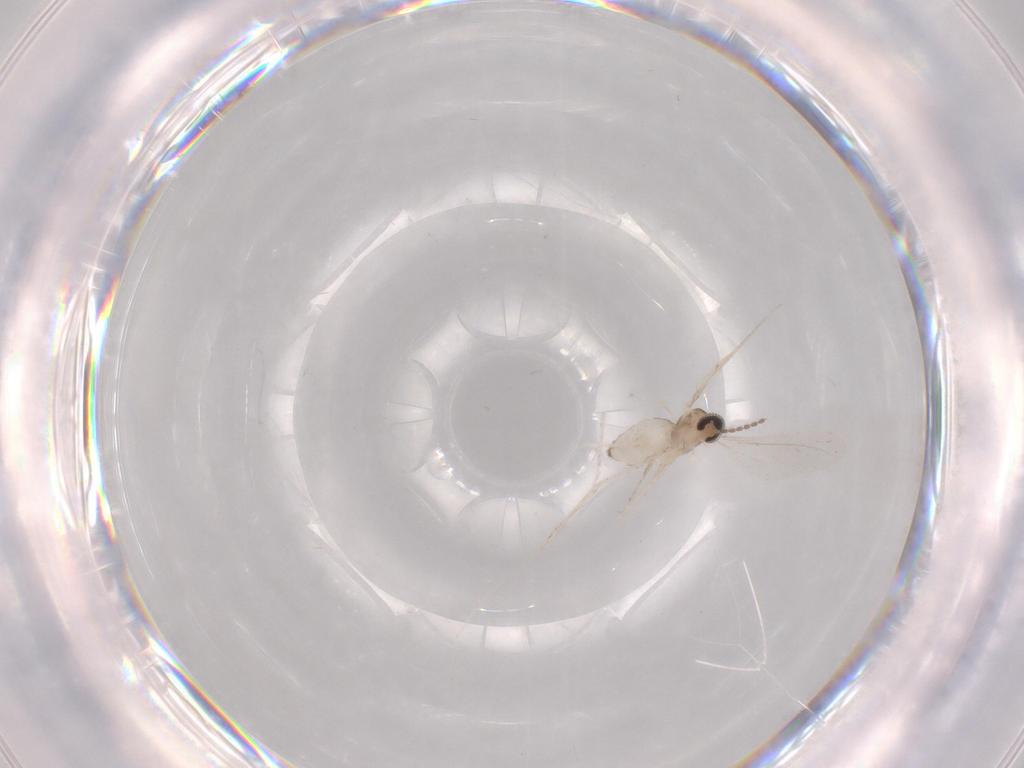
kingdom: Animalia
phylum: Arthropoda
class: Insecta
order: Diptera
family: Cecidomyiidae
